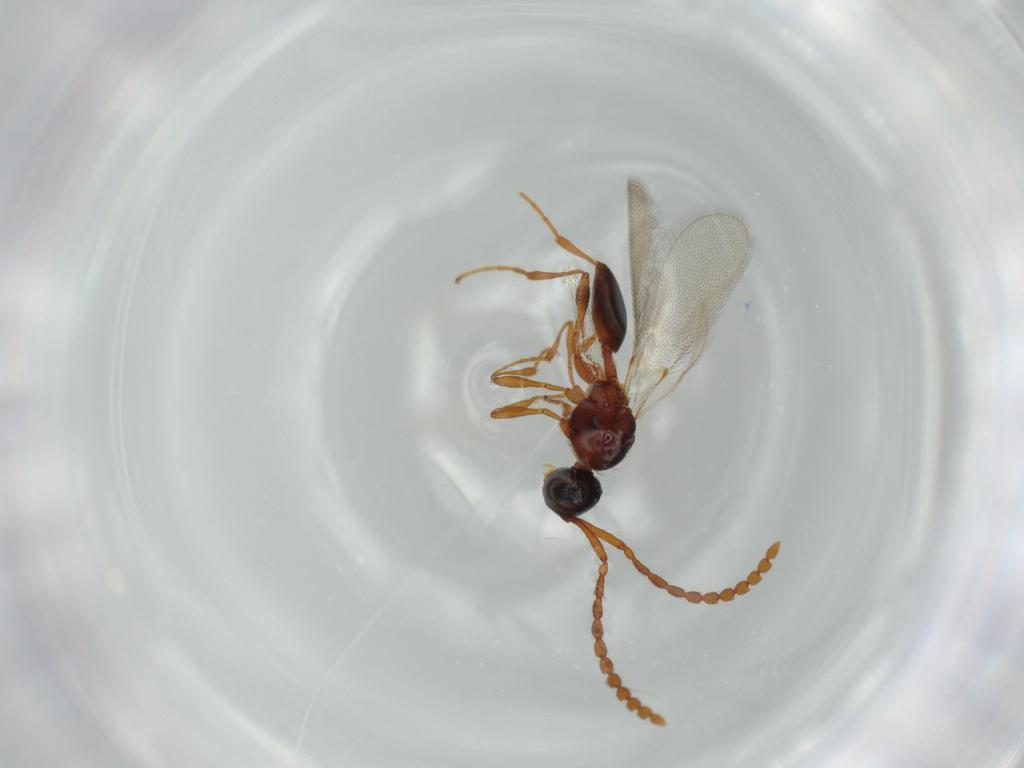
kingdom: Animalia
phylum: Arthropoda
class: Insecta
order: Hymenoptera
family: Diapriidae
